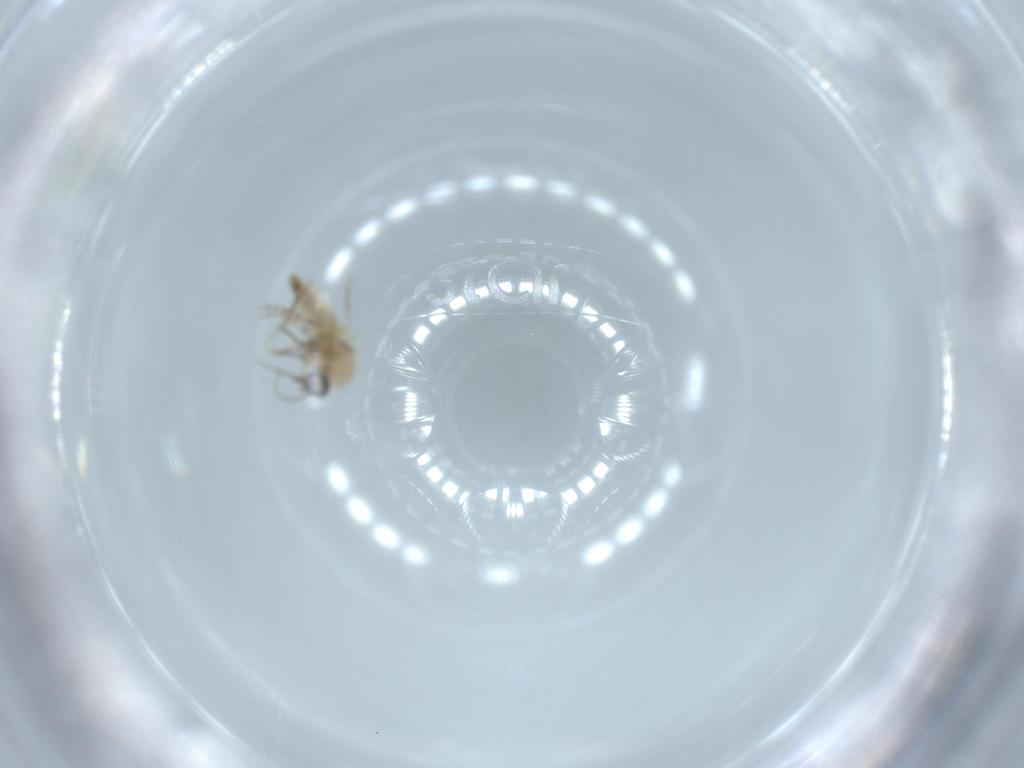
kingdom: Animalia
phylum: Arthropoda
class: Insecta
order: Diptera
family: Ceratopogonidae
